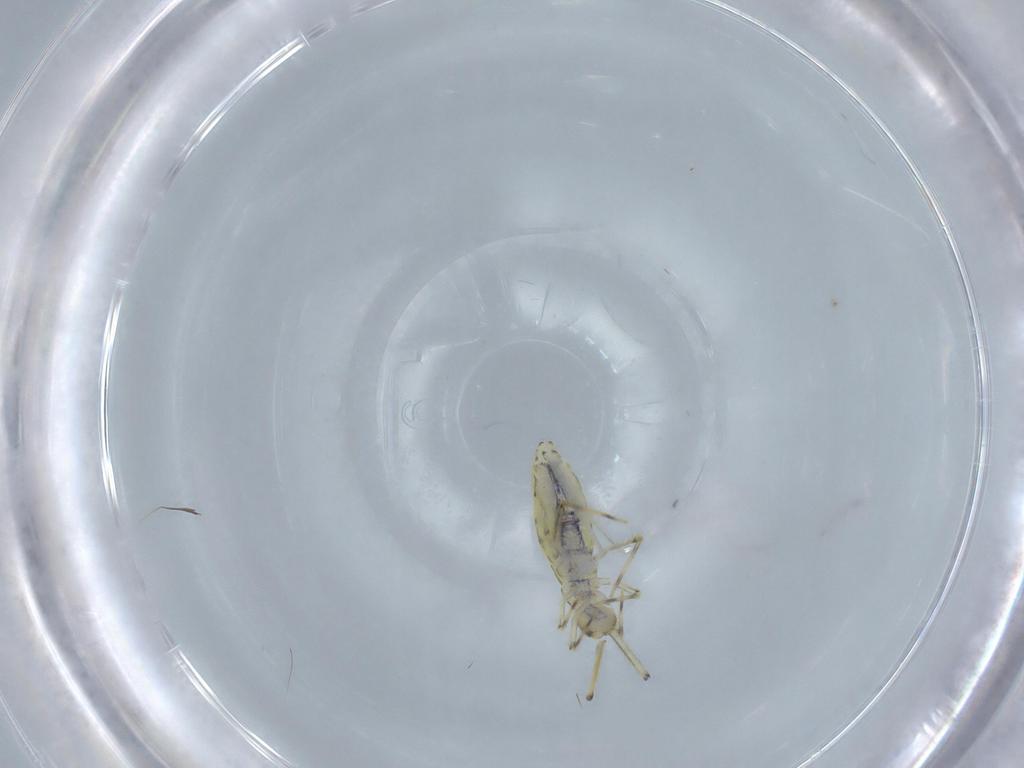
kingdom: Animalia
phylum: Arthropoda
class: Collembola
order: Entomobryomorpha
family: Paronellidae
